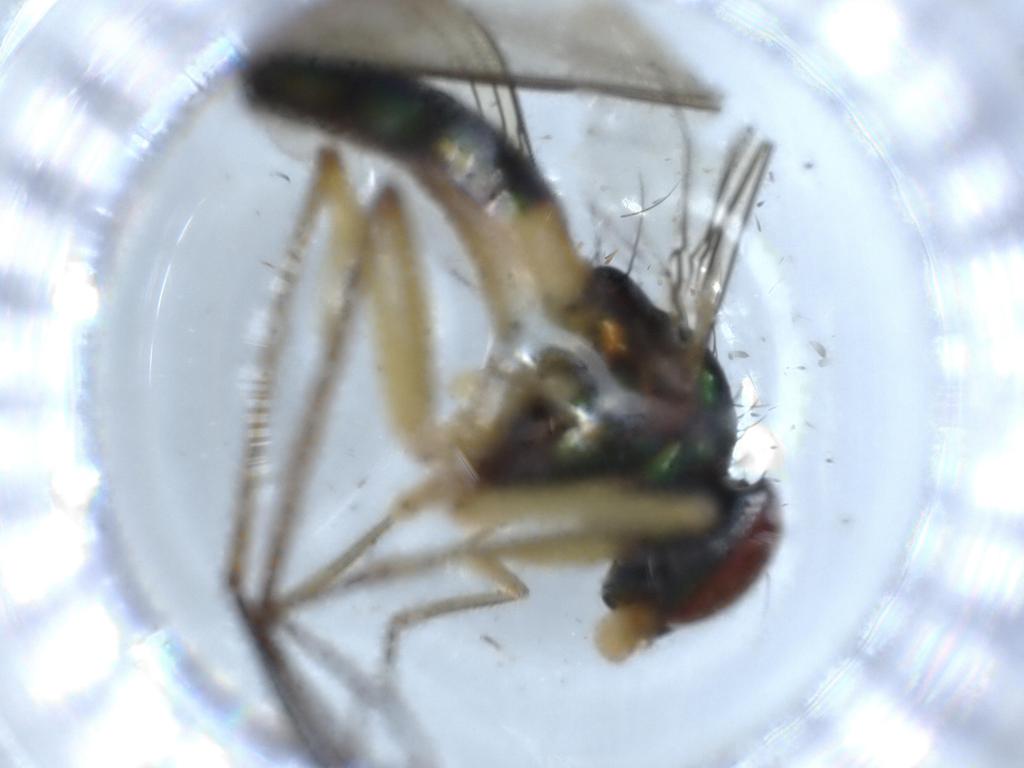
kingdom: Animalia
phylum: Arthropoda
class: Insecta
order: Diptera
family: Dolichopodidae
